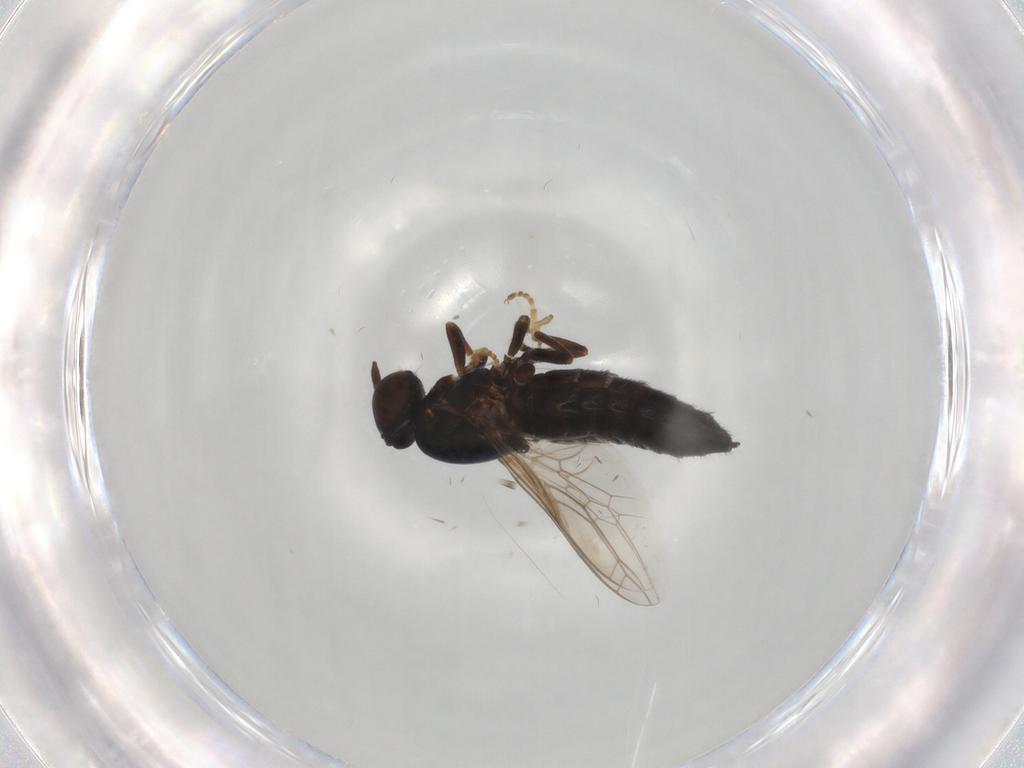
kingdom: Animalia
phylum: Arthropoda
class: Insecta
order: Diptera
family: Scenopinidae
